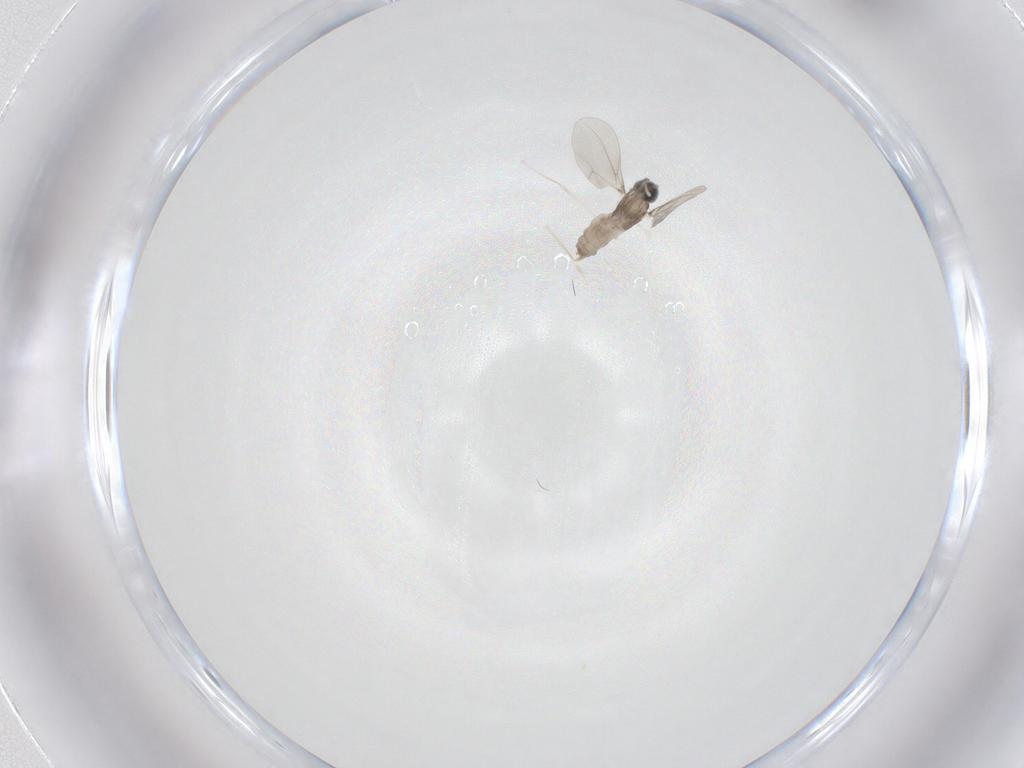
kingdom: Animalia
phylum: Arthropoda
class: Insecta
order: Diptera
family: Cecidomyiidae
